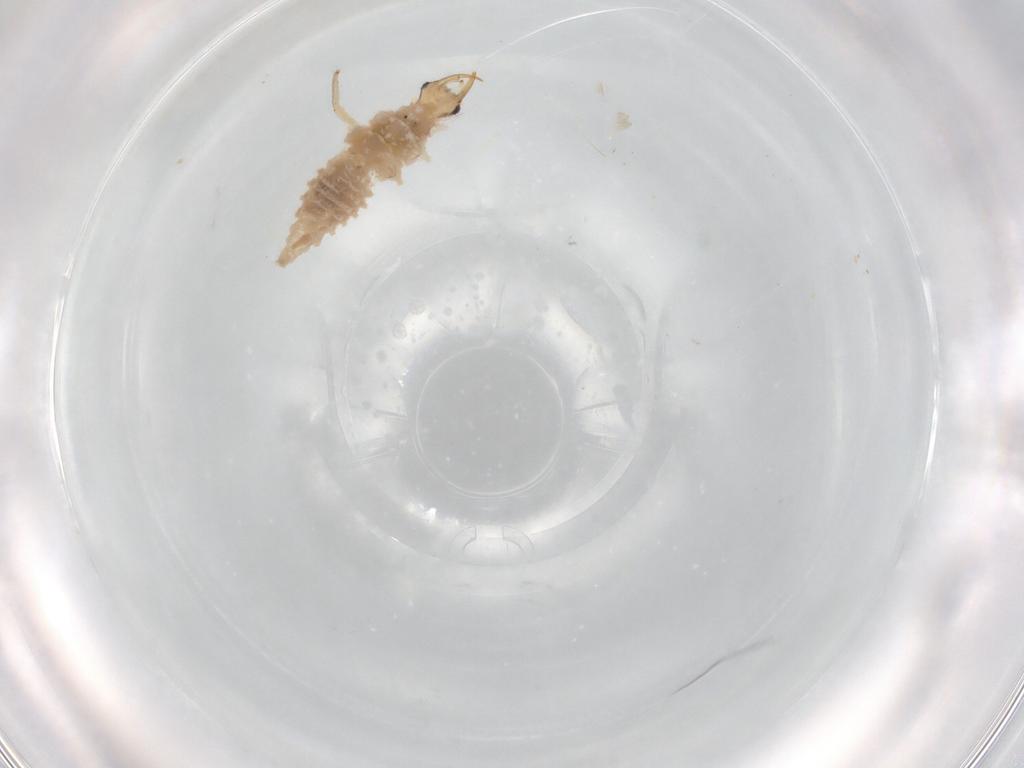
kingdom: Animalia
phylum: Arthropoda
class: Insecta
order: Neuroptera
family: Chrysopidae
